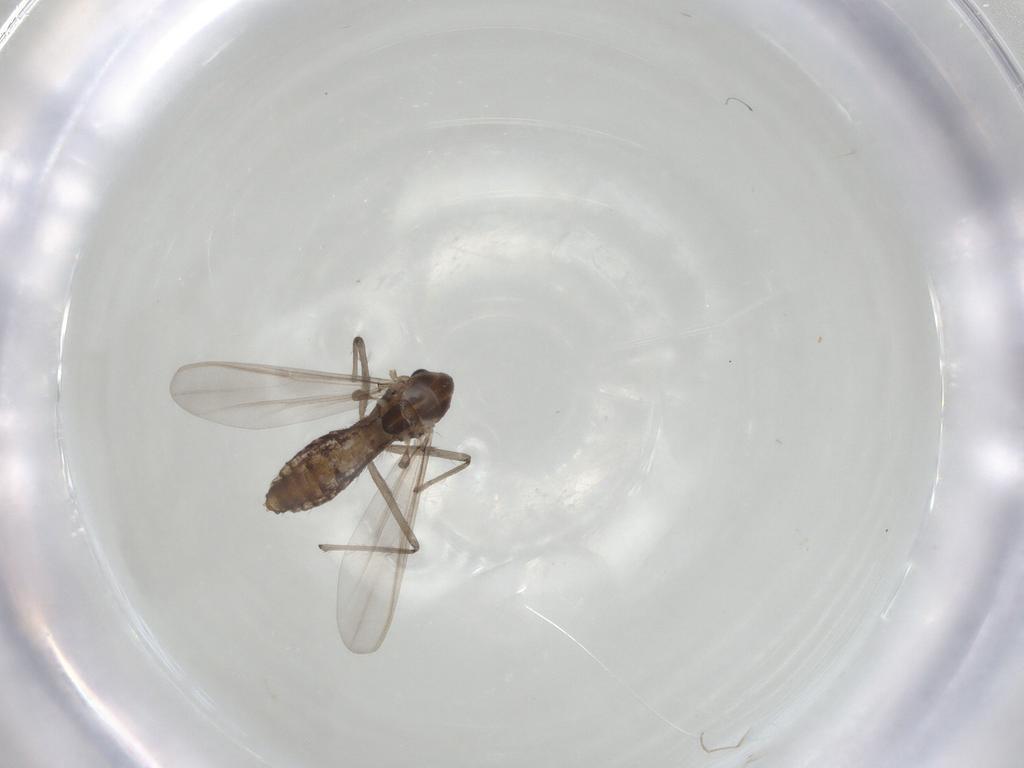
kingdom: Animalia
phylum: Arthropoda
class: Insecta
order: Diptera
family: Chironomidae
